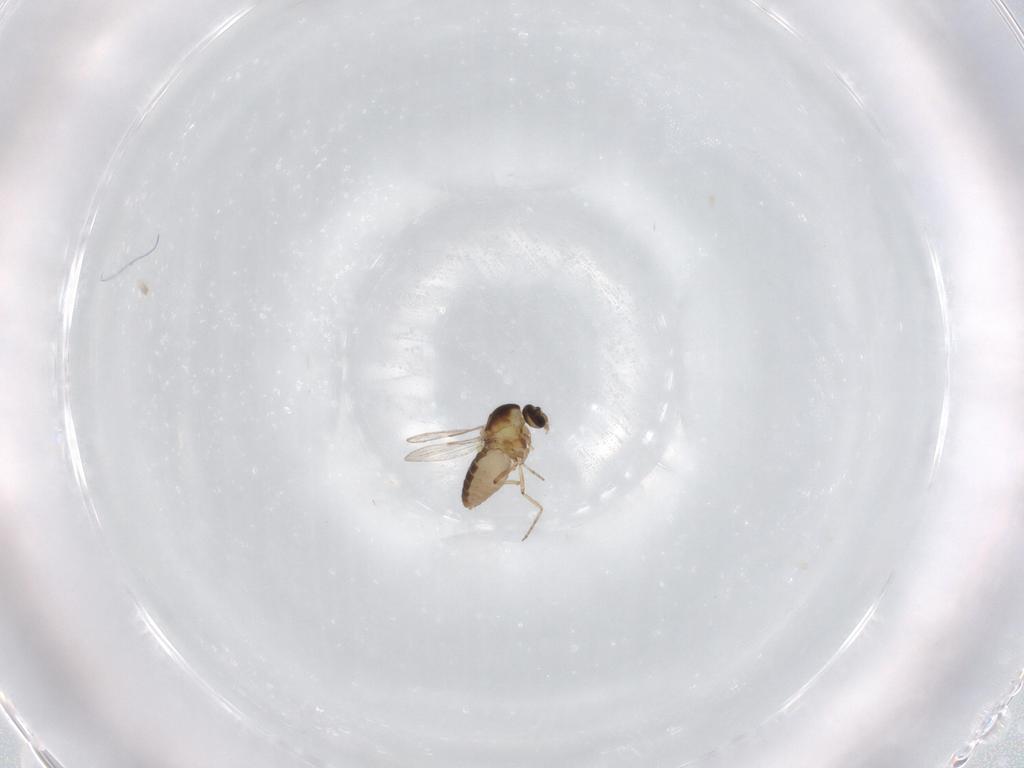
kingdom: Animalia
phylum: Arthropoda
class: Insecta
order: Diptera
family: Ceratopogonidae
